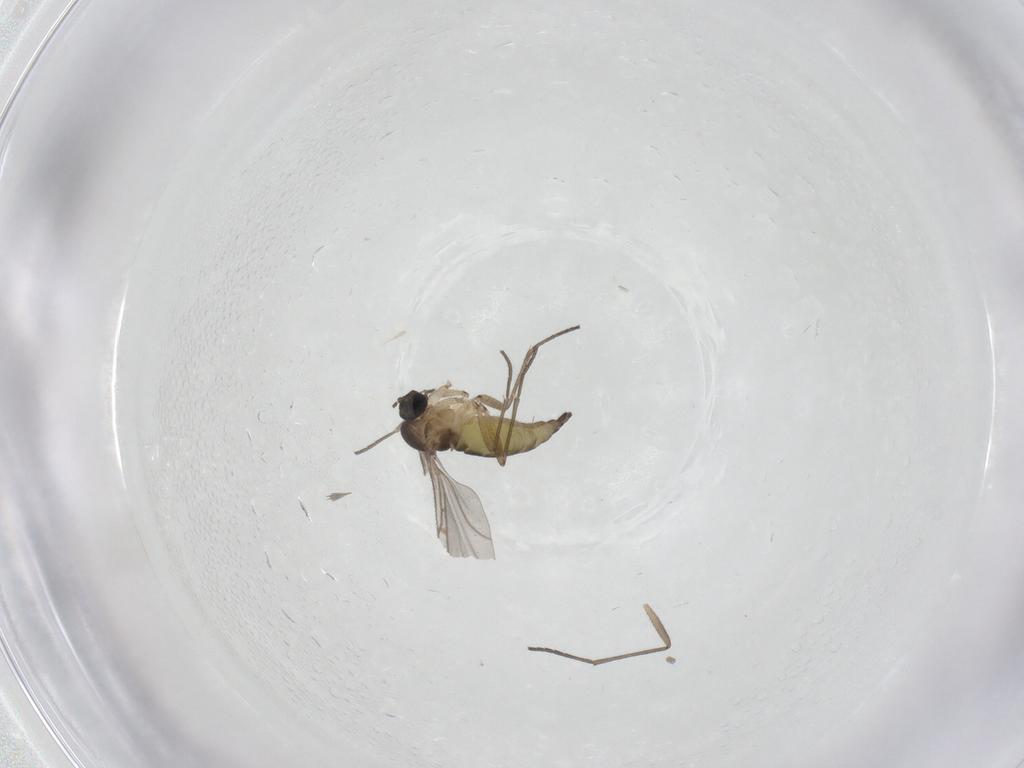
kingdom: Animalia
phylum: Arthropoda
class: Insecta
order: Diptera
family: Sciaridae
